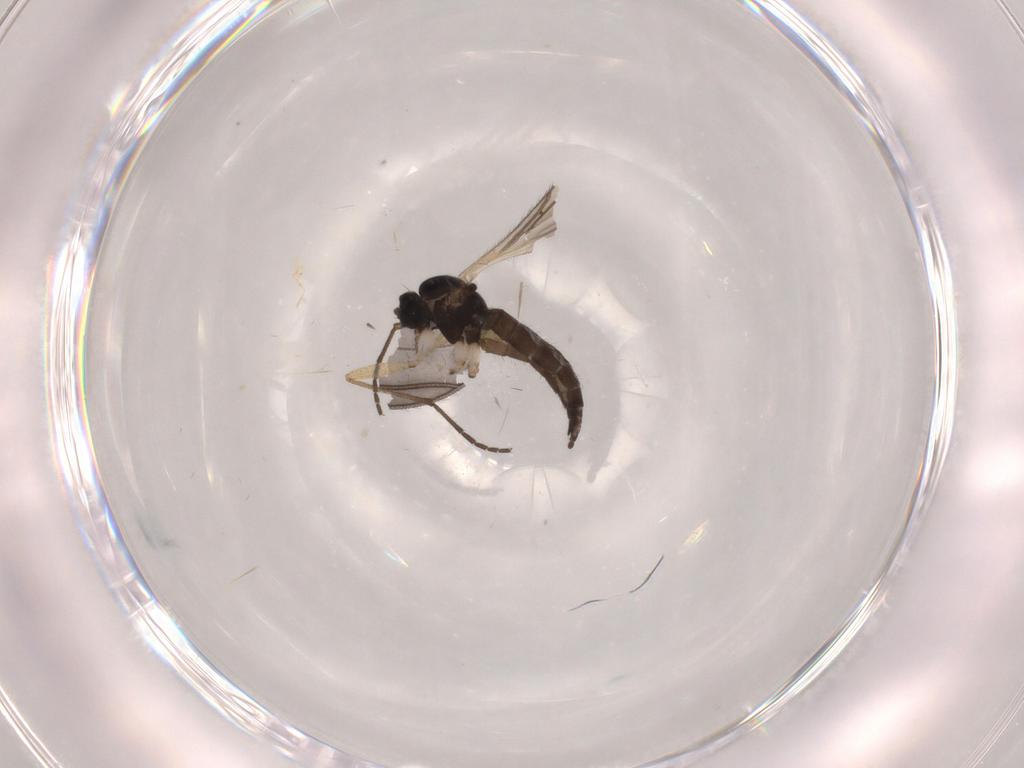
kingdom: Animalia
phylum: Arthropoda
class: Insecta
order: Diptera
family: Sciaridae
